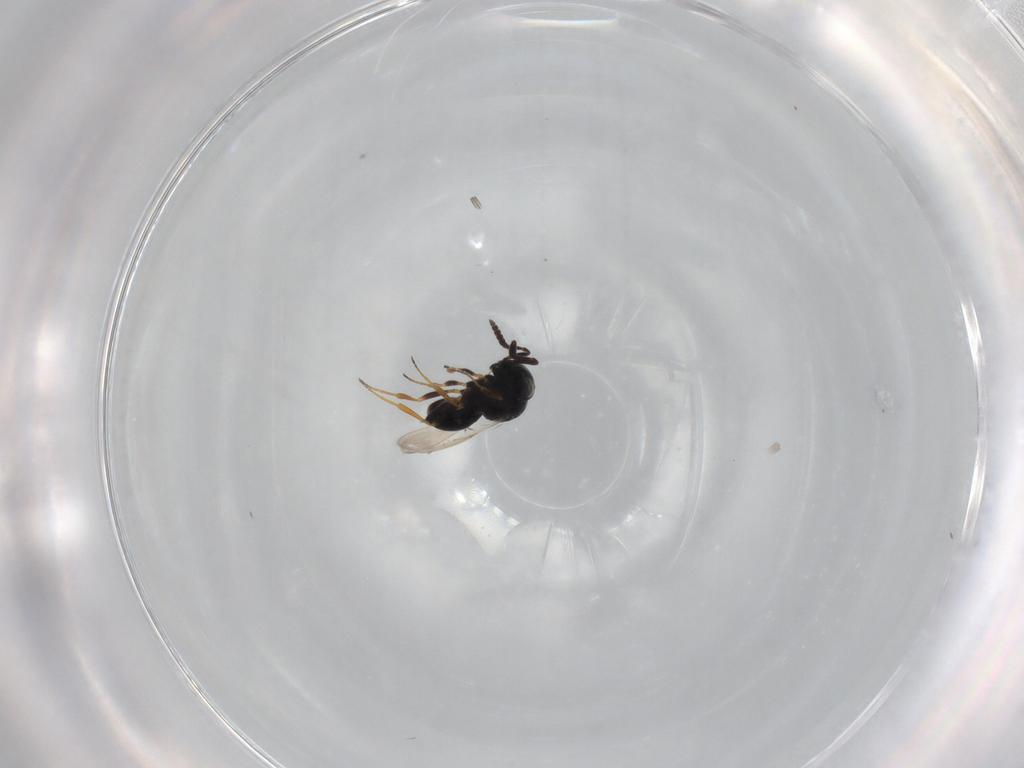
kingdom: Animalia
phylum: Arthropoda
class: Insecta
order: Hymenoptera
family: Scelionidae
